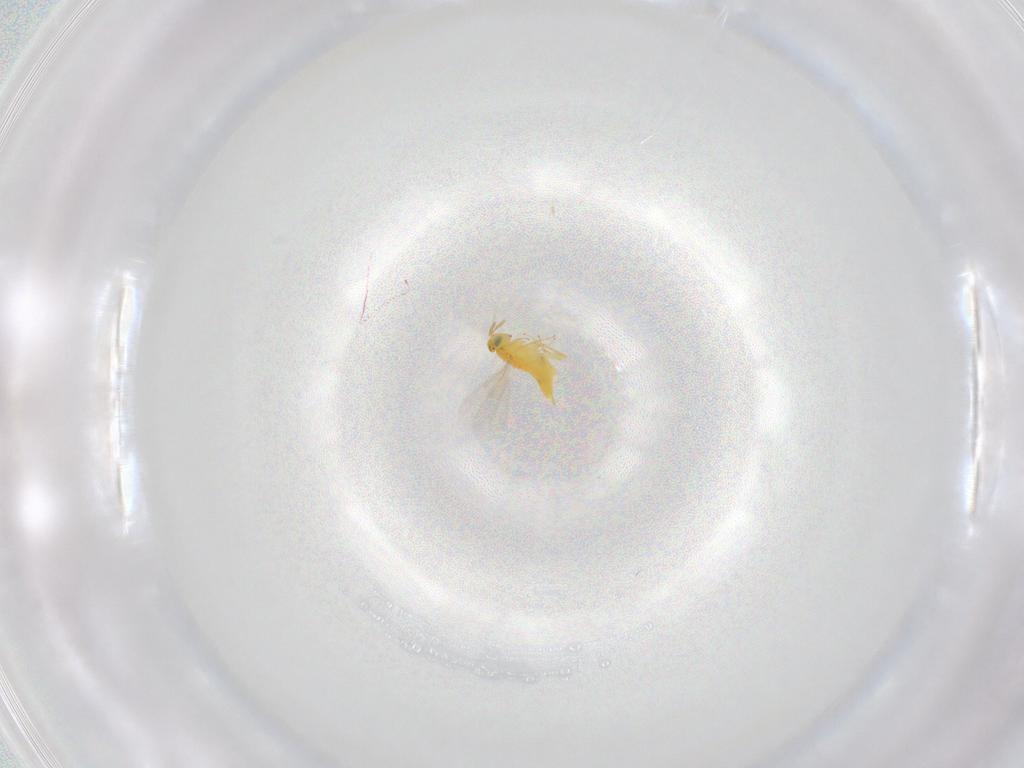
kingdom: Animalia
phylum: Arthropoda
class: Insecta
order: Hymenoptera
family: Aphelinidae
